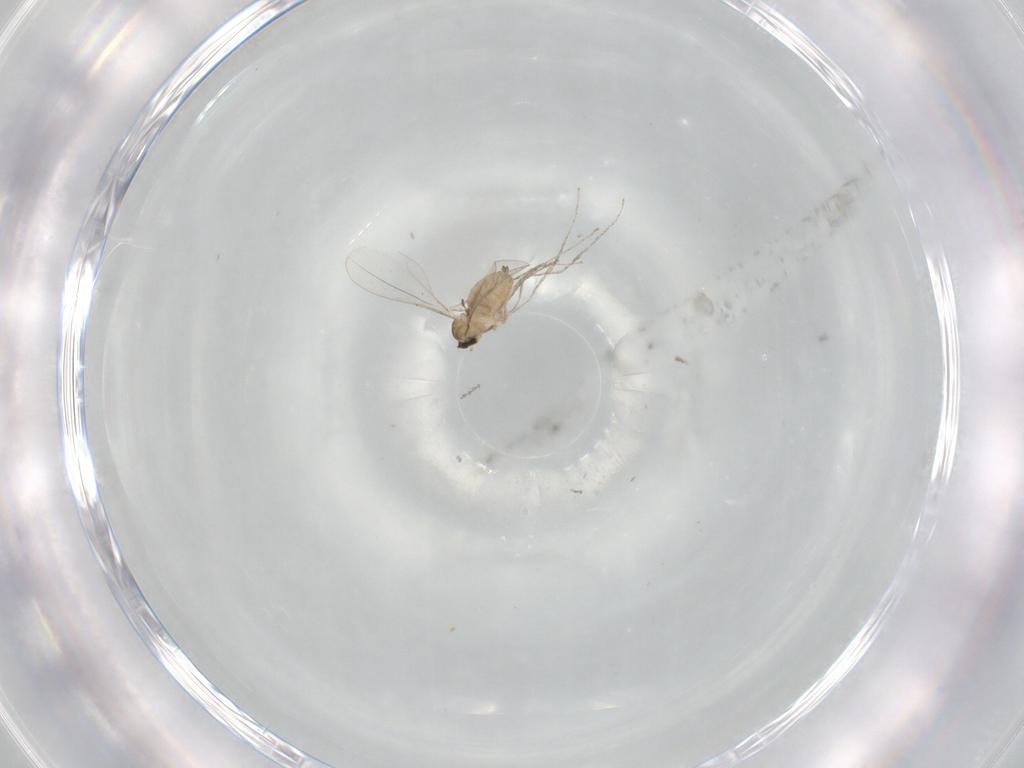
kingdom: Animalia
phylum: Arthropoda
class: Insecta
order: Diptera
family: Cecidomyiidae
